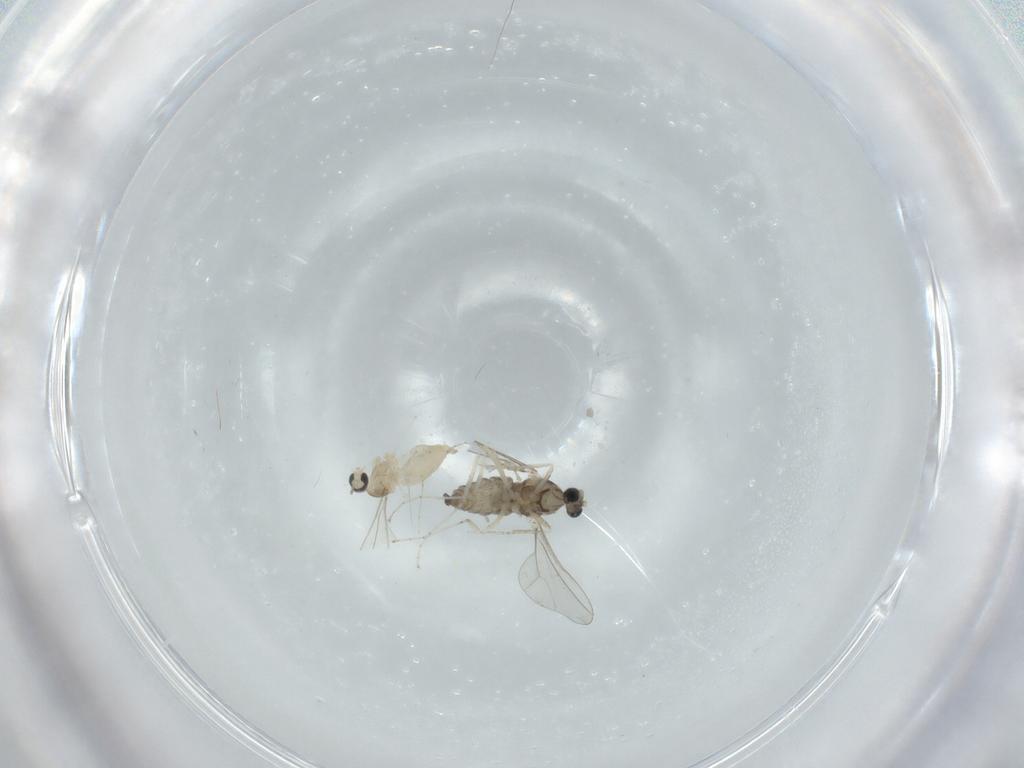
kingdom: Animalia
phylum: Arthropoda
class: Insecta
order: Diptera
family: Cecidomyiidae
